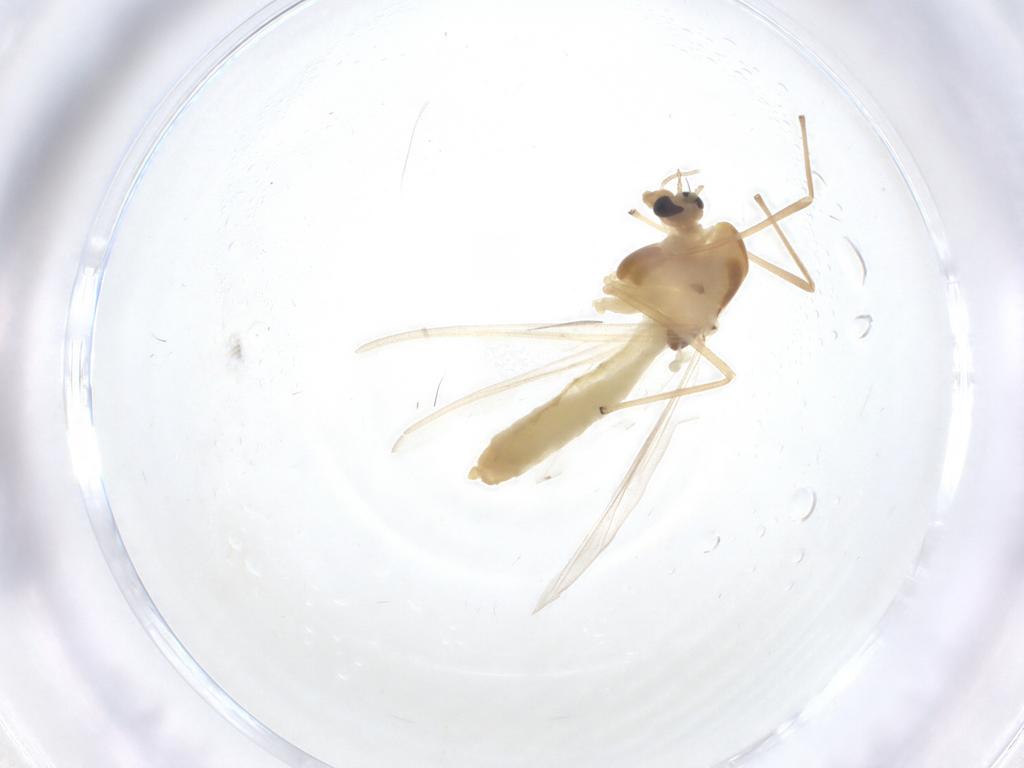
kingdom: Animalia
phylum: Arthropoda
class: Insecta
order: Diptera
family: Chironomidae
